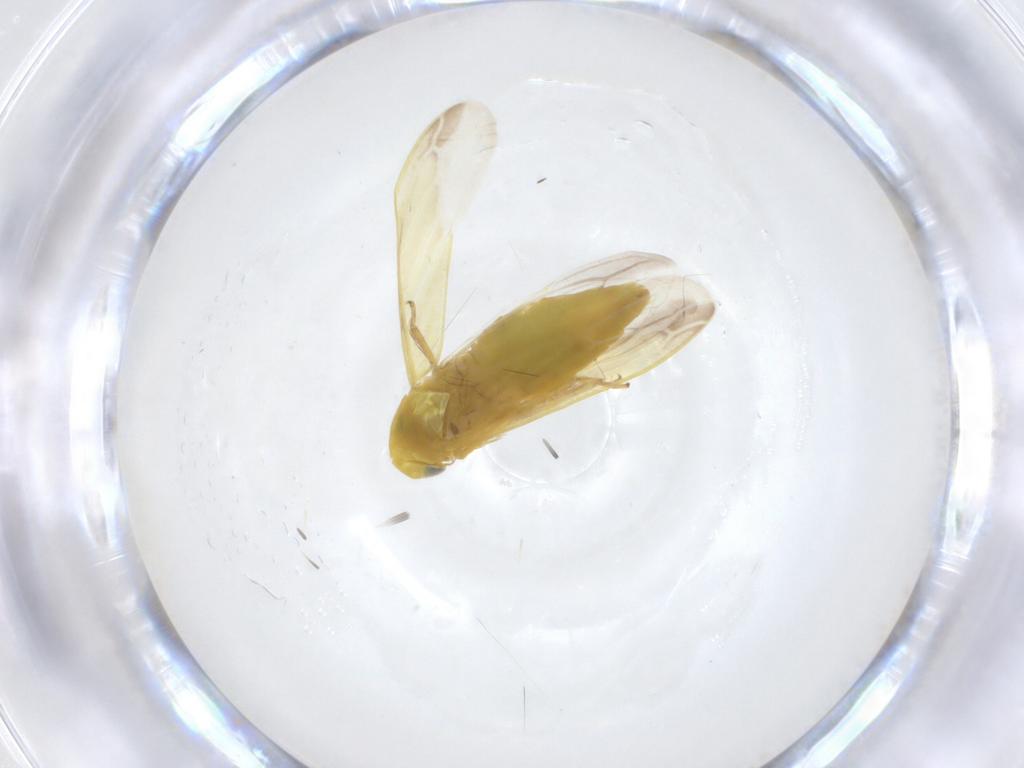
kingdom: Animalia
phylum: Arthropoda
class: Insecta
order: Hemiptera
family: Cicadellidae
